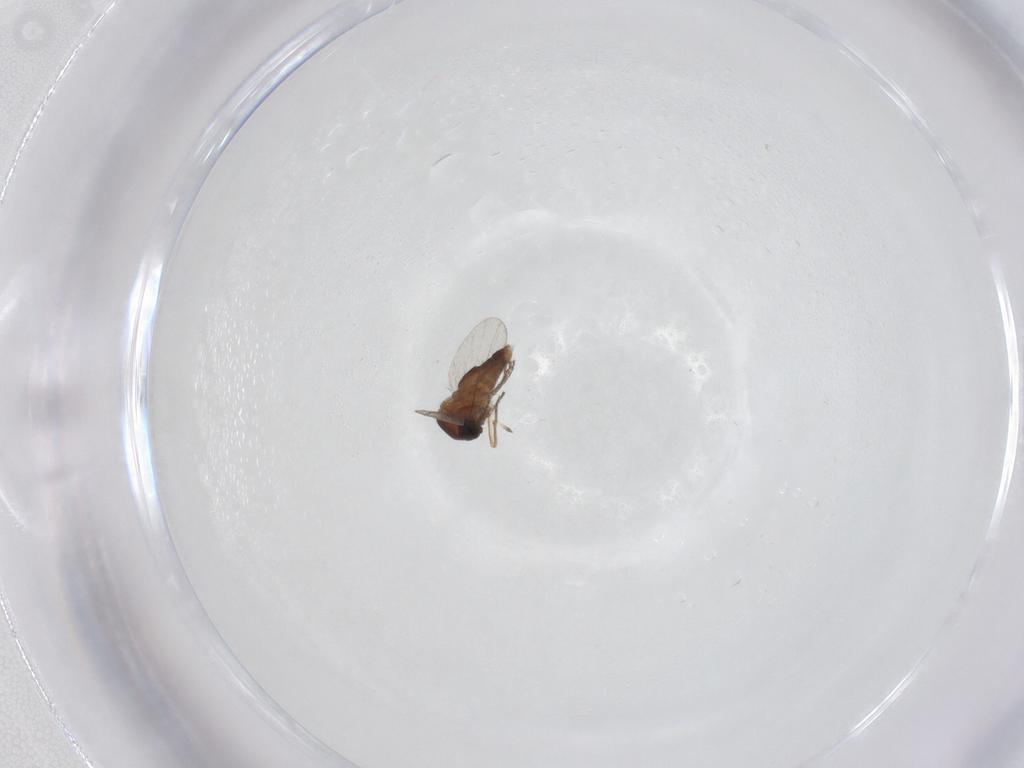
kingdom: Animalia
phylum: Arthropoda
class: Insecta
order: Diptera
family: Ceratopogonidae
